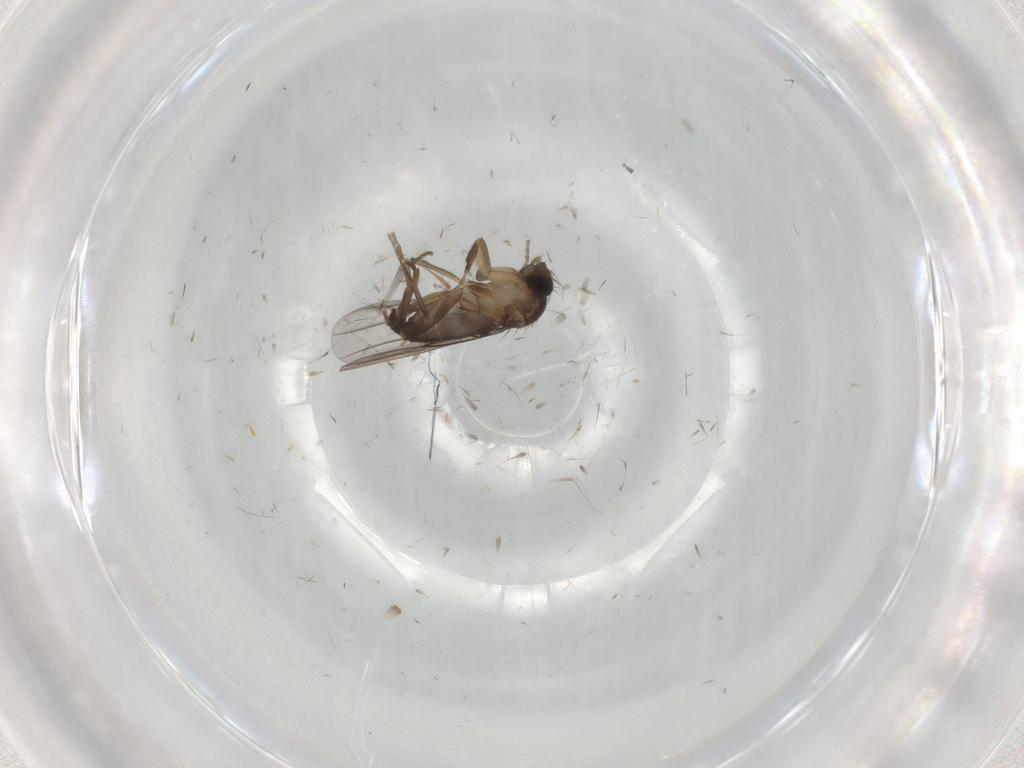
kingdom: Animalia
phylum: Arthropoda
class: Insecta
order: Diptera
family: Phoridae
